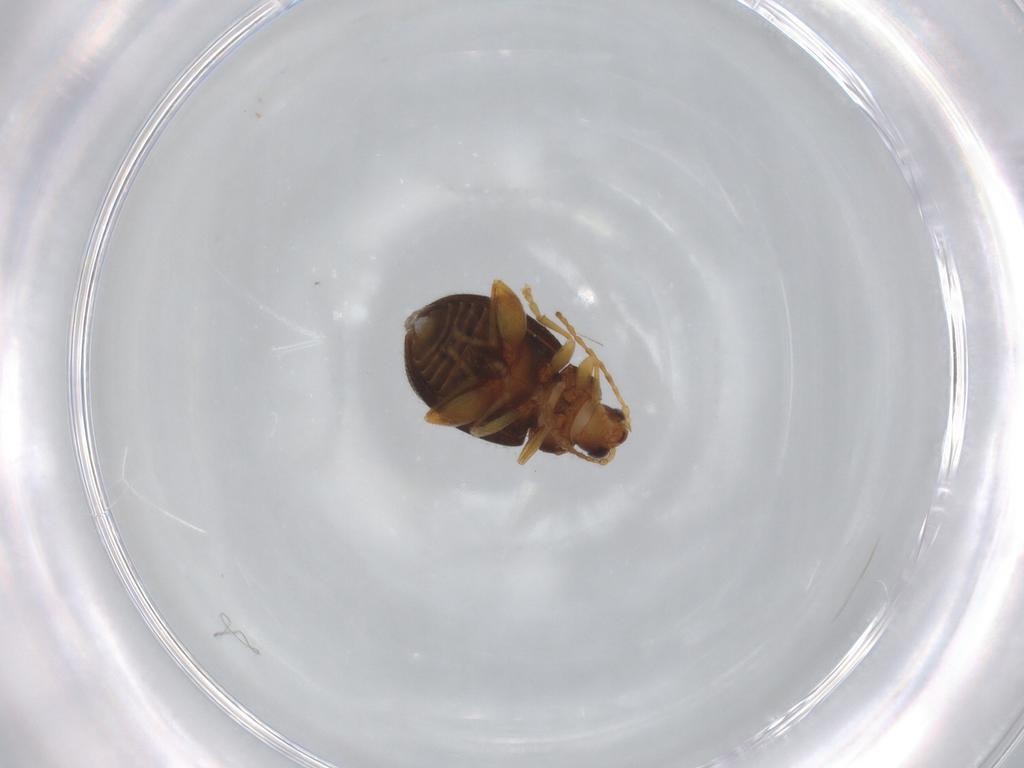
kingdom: Animalia
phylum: Arthropoda
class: Insecta
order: Coleoptera
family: Chrysomelidae
